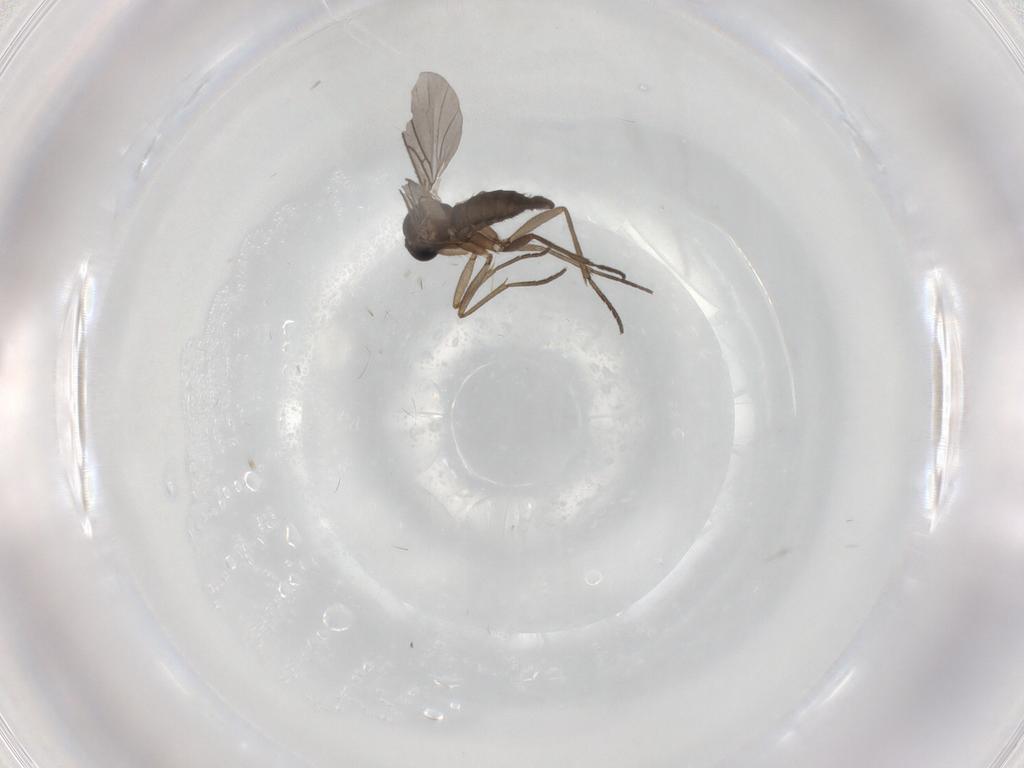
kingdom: Animalia
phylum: Arthropoda
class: Insecta
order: Diptera
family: Sciaridae
